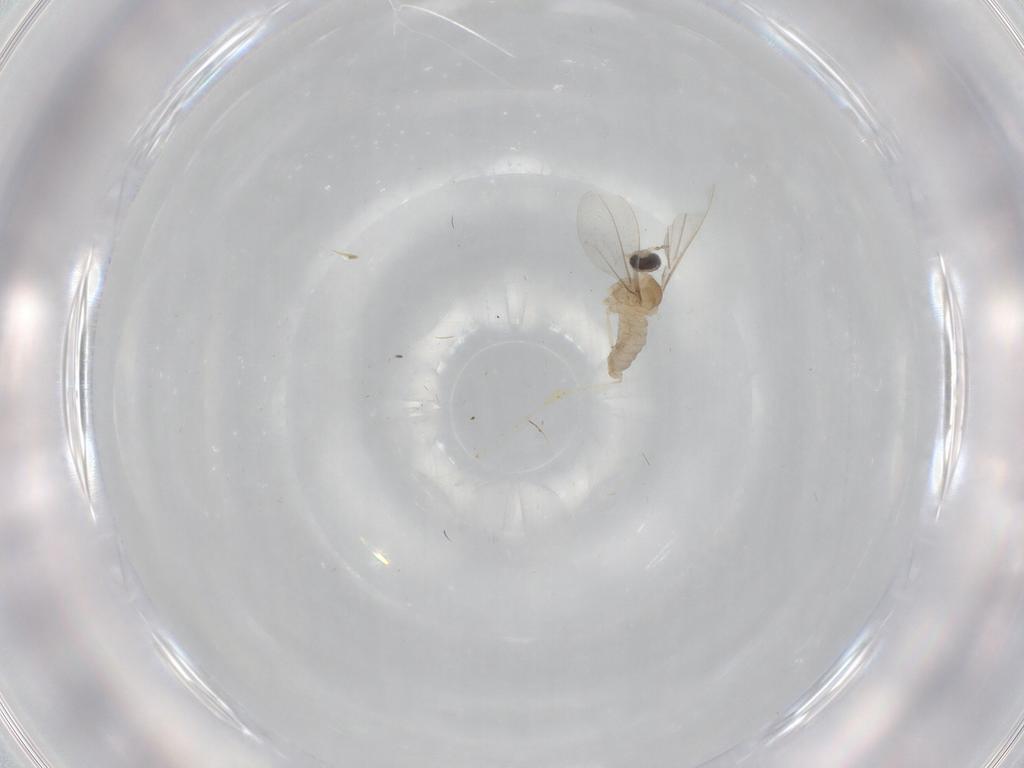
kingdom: Animalia
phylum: Arthropoda
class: Insecta
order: Diptera
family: Cecidomyiidae
